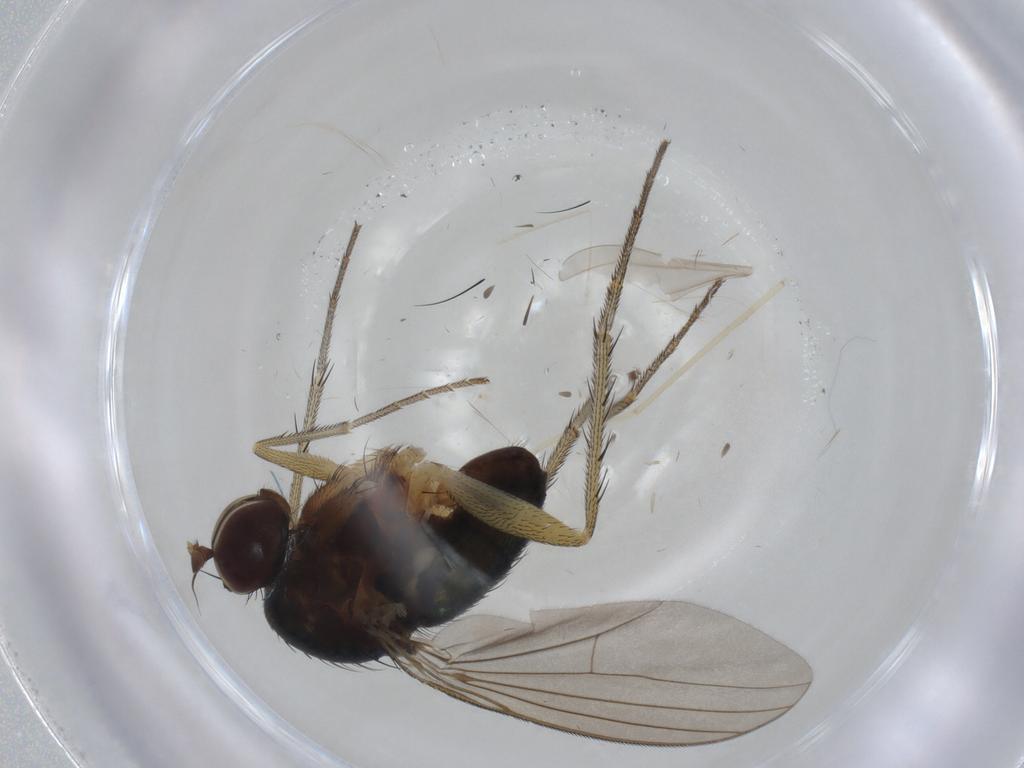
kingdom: Animalia
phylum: Arthropoda
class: Insecta
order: Diptera
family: Dolichopodidae
